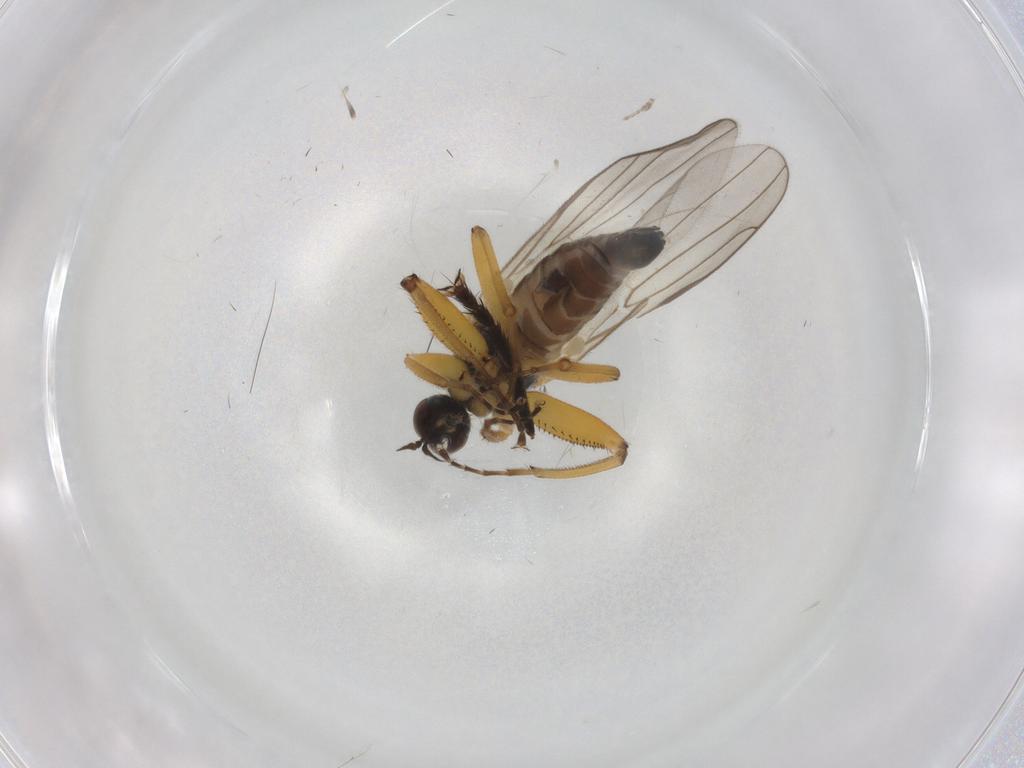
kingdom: Animalia
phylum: Arthropoda
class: Insecta
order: Diptera
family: Hybotidae
